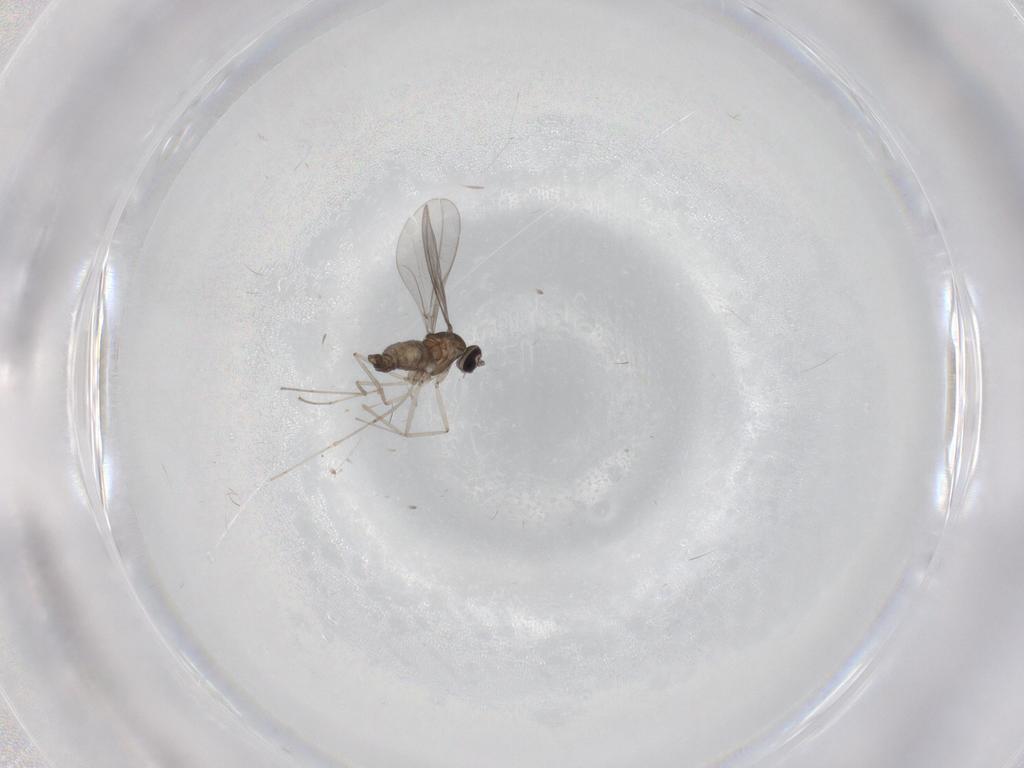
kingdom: Animalia
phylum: Arthropoda
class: Insecta
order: Diptera
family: Cecidomyiidae
